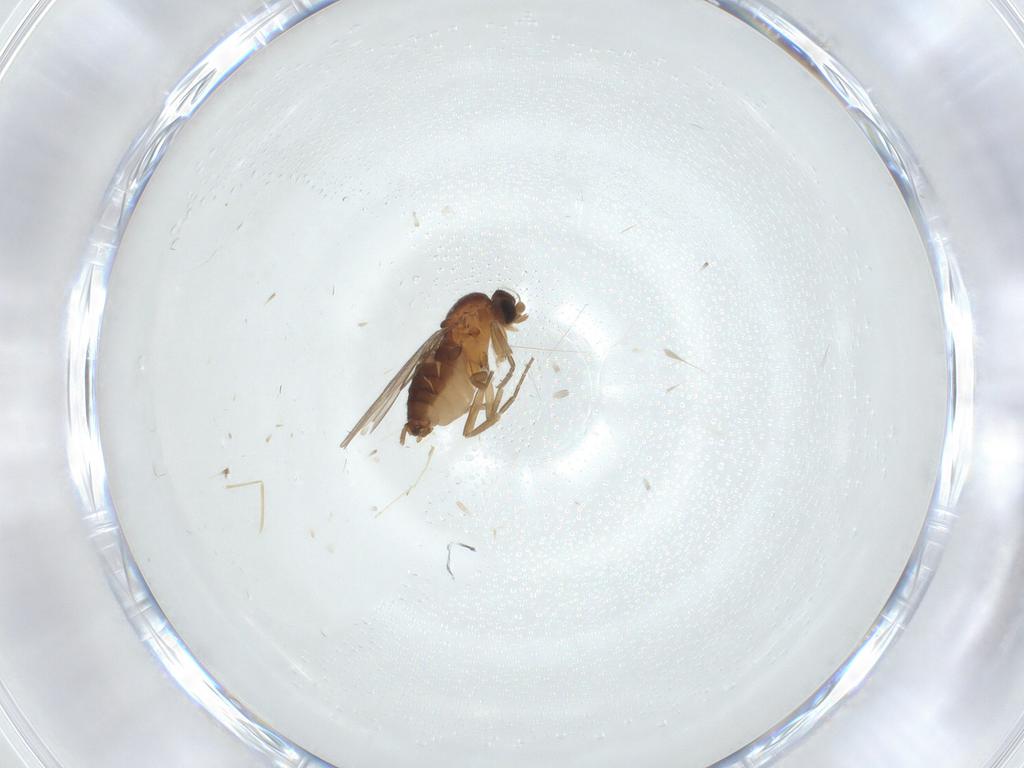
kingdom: Animalia
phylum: Arthropoda
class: Insecta
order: Diptera
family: Cecidomyiidae
